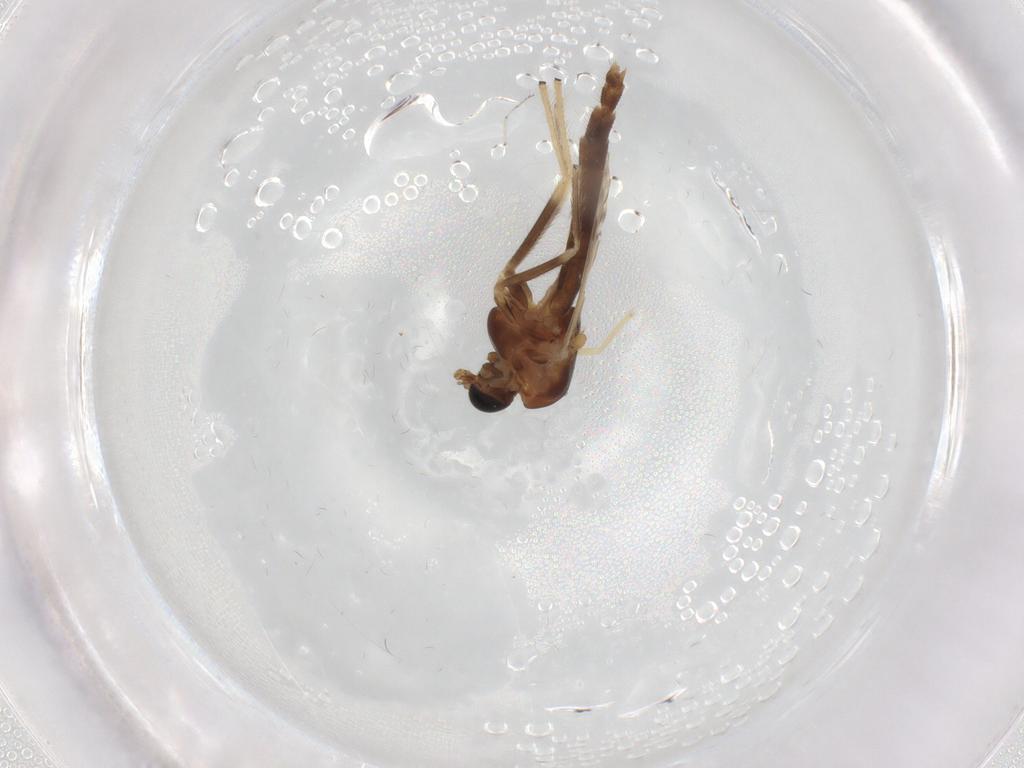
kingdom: Animalia
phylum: Arthropoda
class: Insecta
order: Diptera
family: Chironomidae
